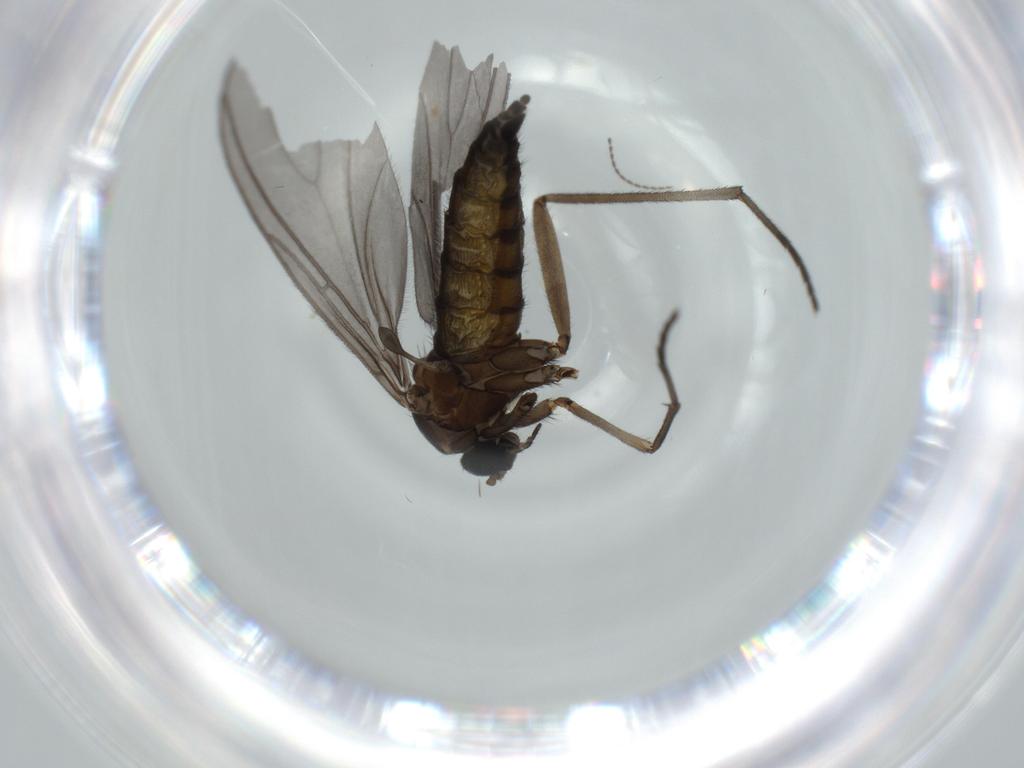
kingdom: Animalia
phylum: Arthropoda
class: Insecta
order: Diptera
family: Sciaridae
